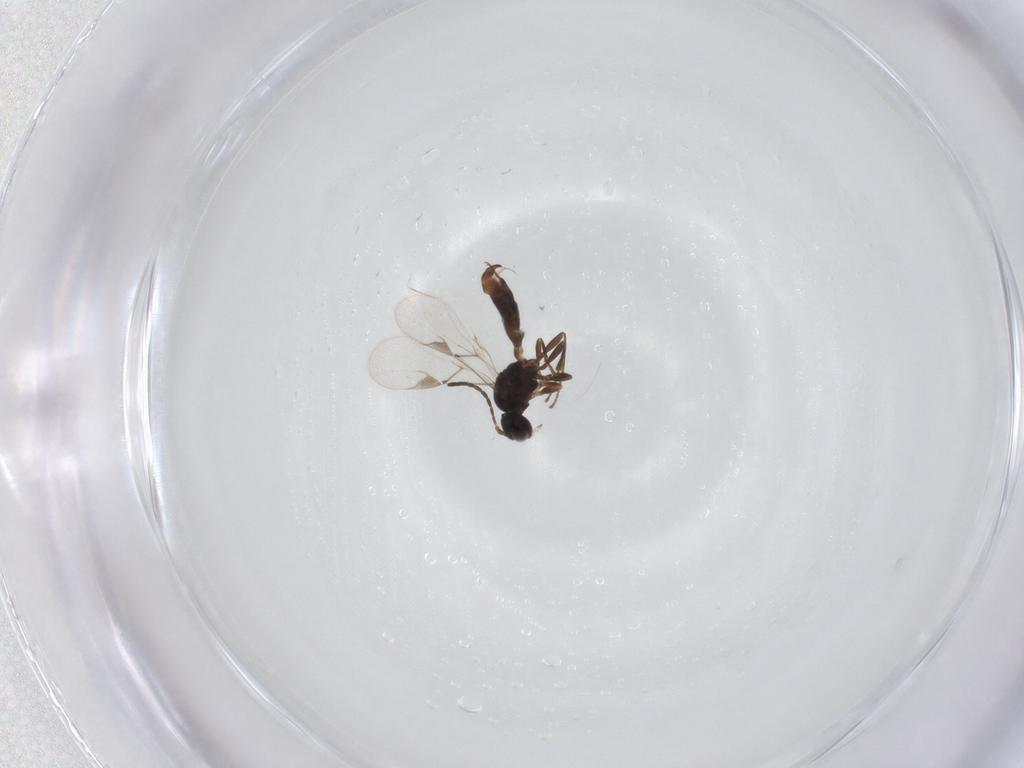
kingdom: Animalia
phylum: Arthropoda
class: Insecta
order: Hymenoptera
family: Braconidae
